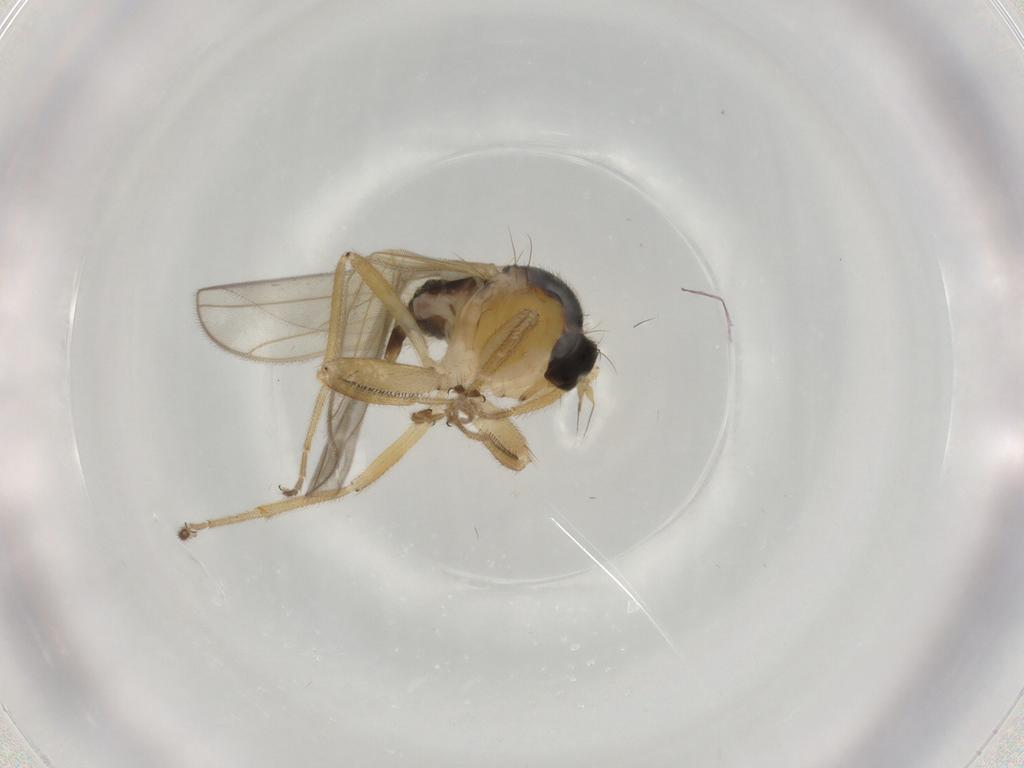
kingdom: Animalia
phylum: Arthropoda
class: Insecta
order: Diptera
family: Hybotidae
